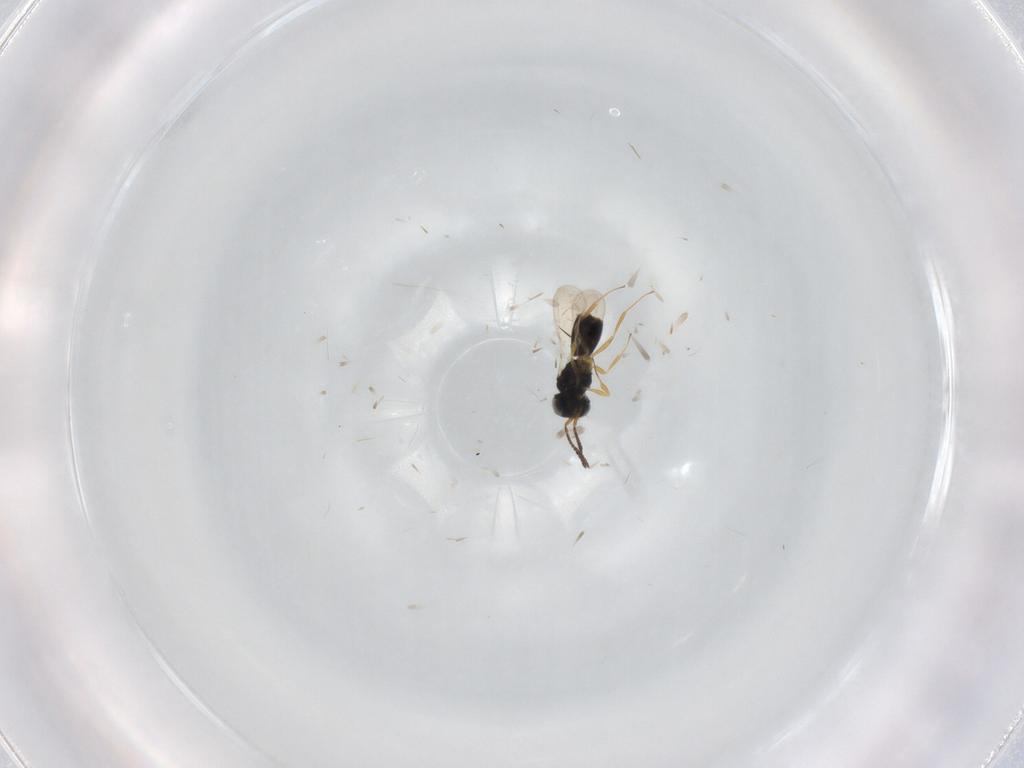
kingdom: Animalia
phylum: Arthropoda
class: Insecta
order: Hymenoptera
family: Scelionidae
